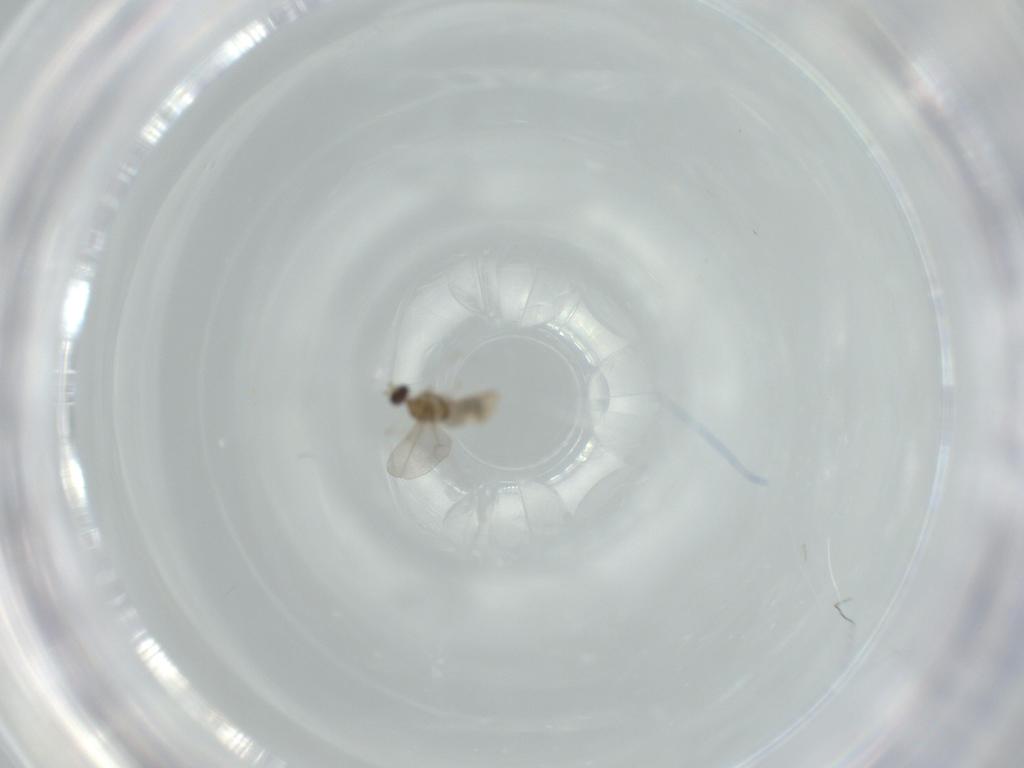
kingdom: Animalia
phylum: Arthropoda
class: Insecta
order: Diptera
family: Cecidomyiidae
